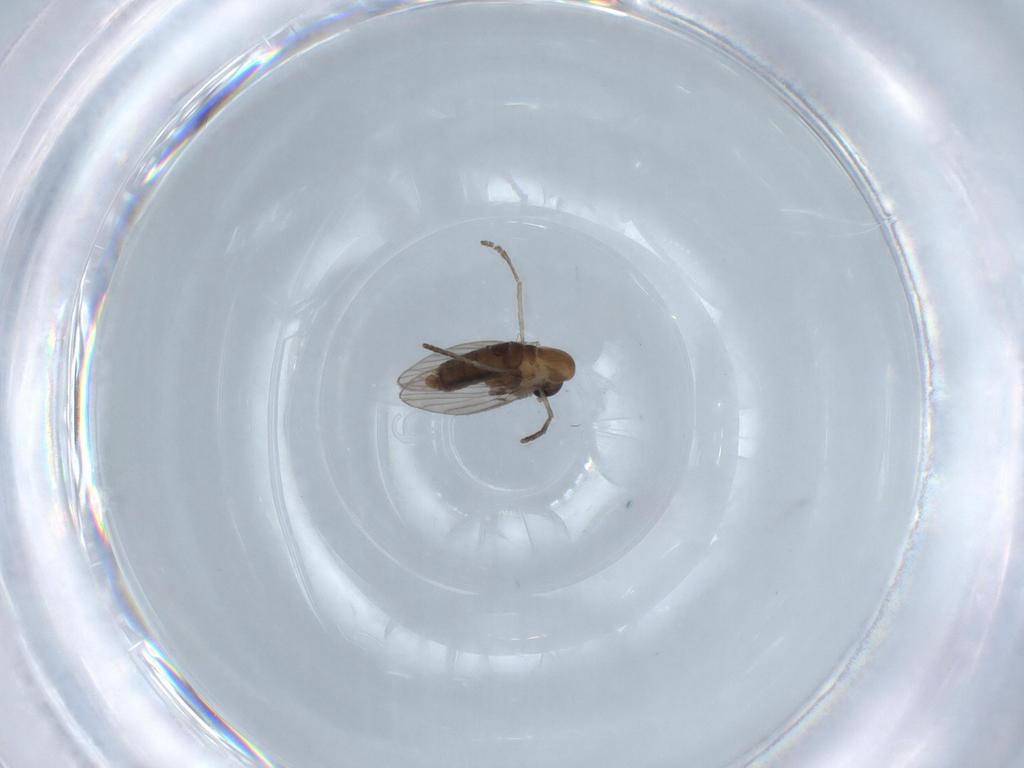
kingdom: Animalia
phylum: Arthropoda
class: Insecta
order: Diptera
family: Psychodidae
